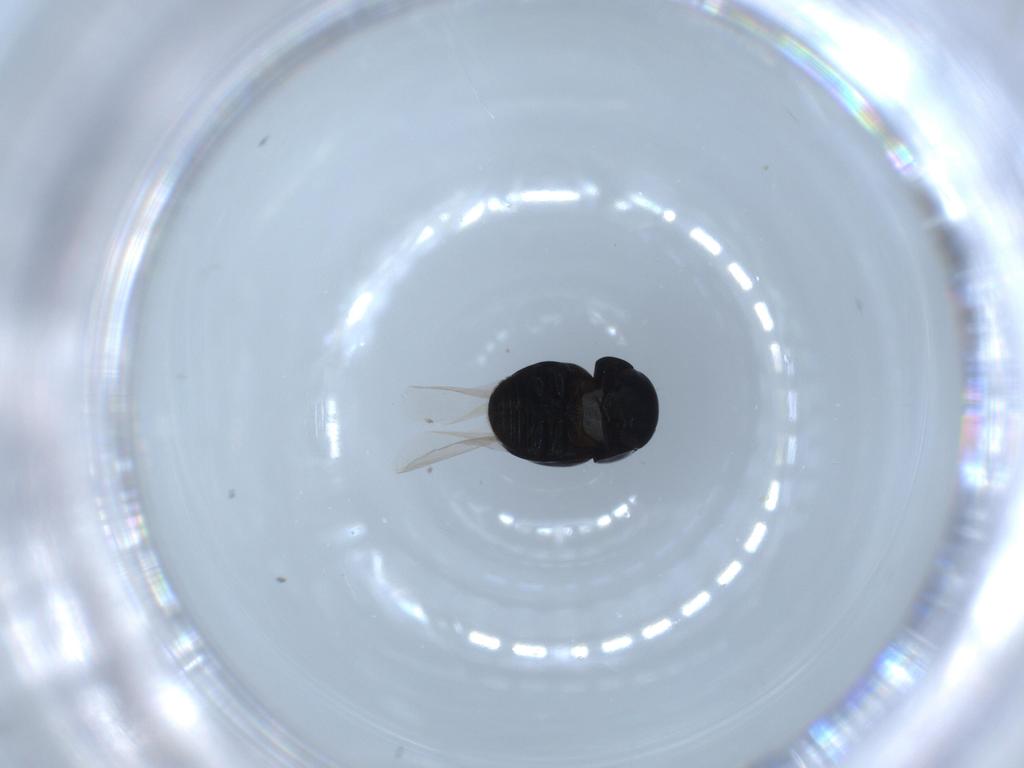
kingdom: Animalia
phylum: Arthropoda
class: Insecta
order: Coleoptera
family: Cybocephalidae
